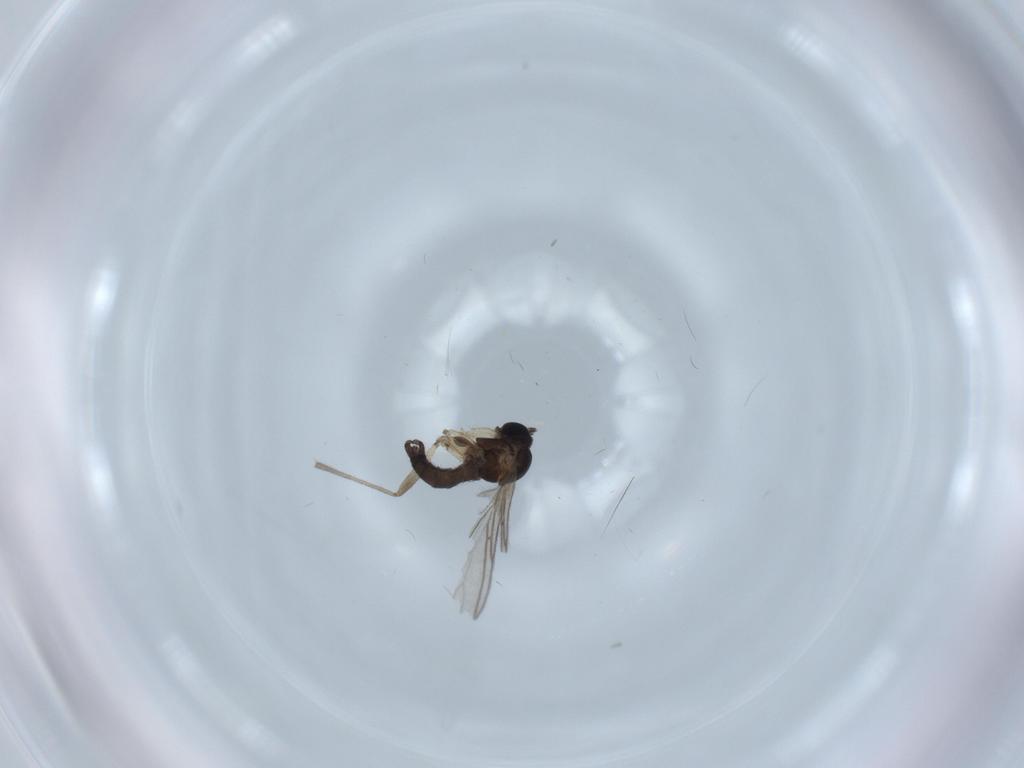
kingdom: Animalia
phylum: Arthropoda
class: Insecta
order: Diptera
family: Sciaridae
